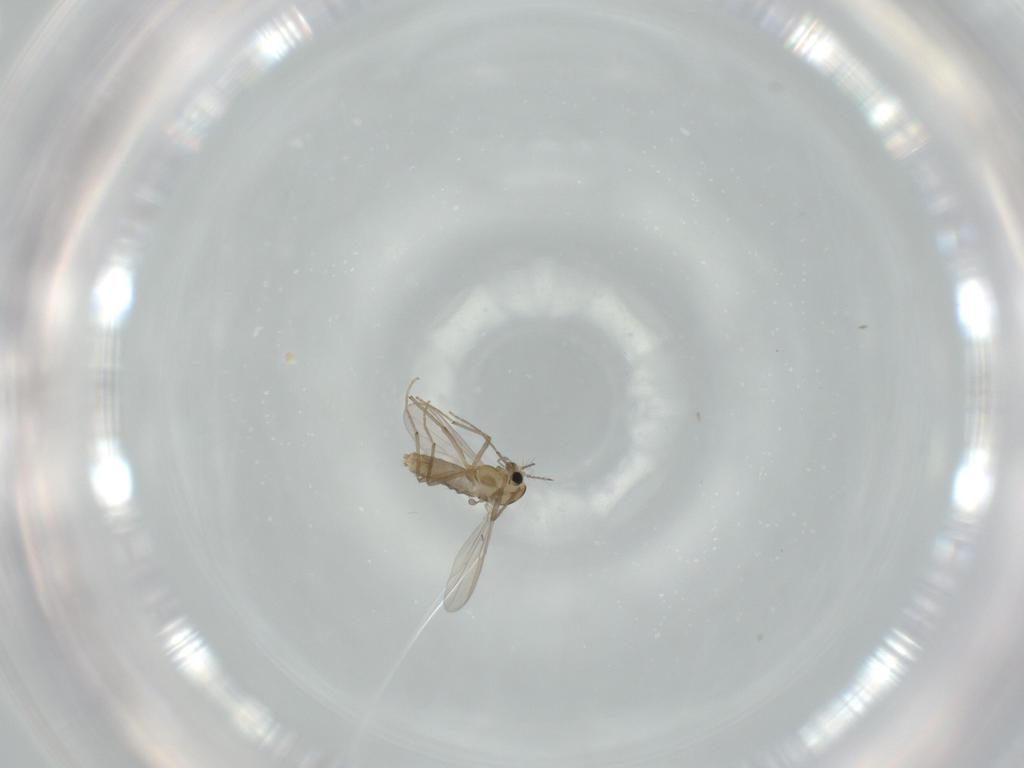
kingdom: Animalia
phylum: Arthropoda
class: Insecta
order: Diptera
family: Chironomidae
